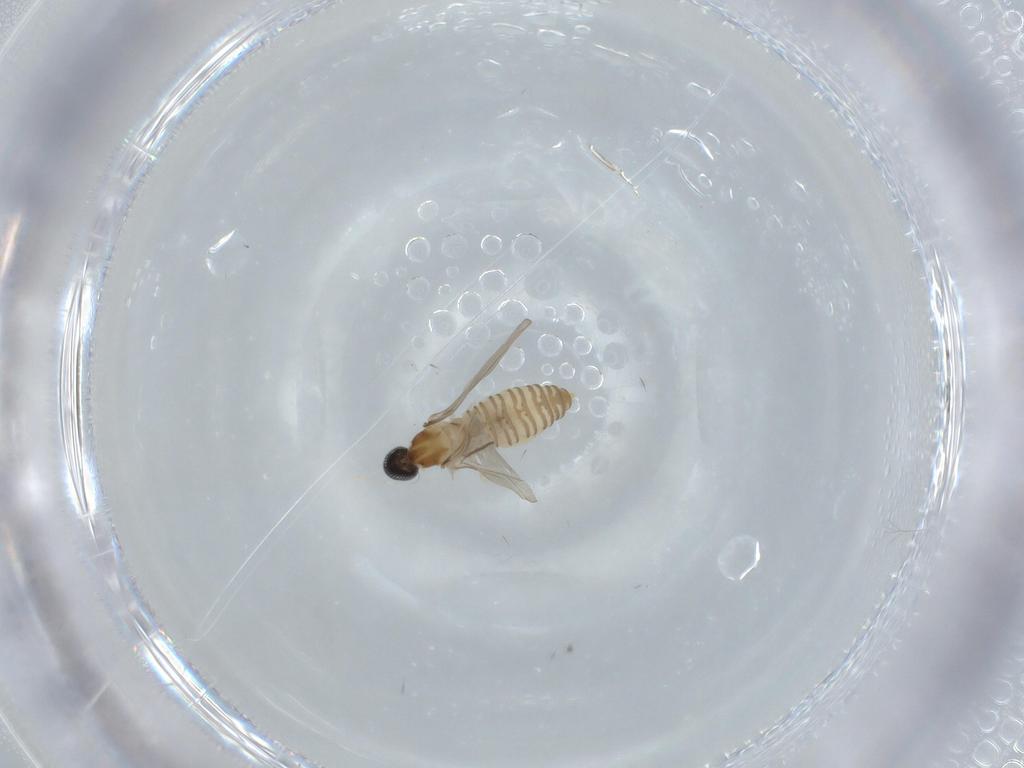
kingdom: Animalia
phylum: Arthropoda
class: Insecta
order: Diptera
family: Cecidomyiidae
